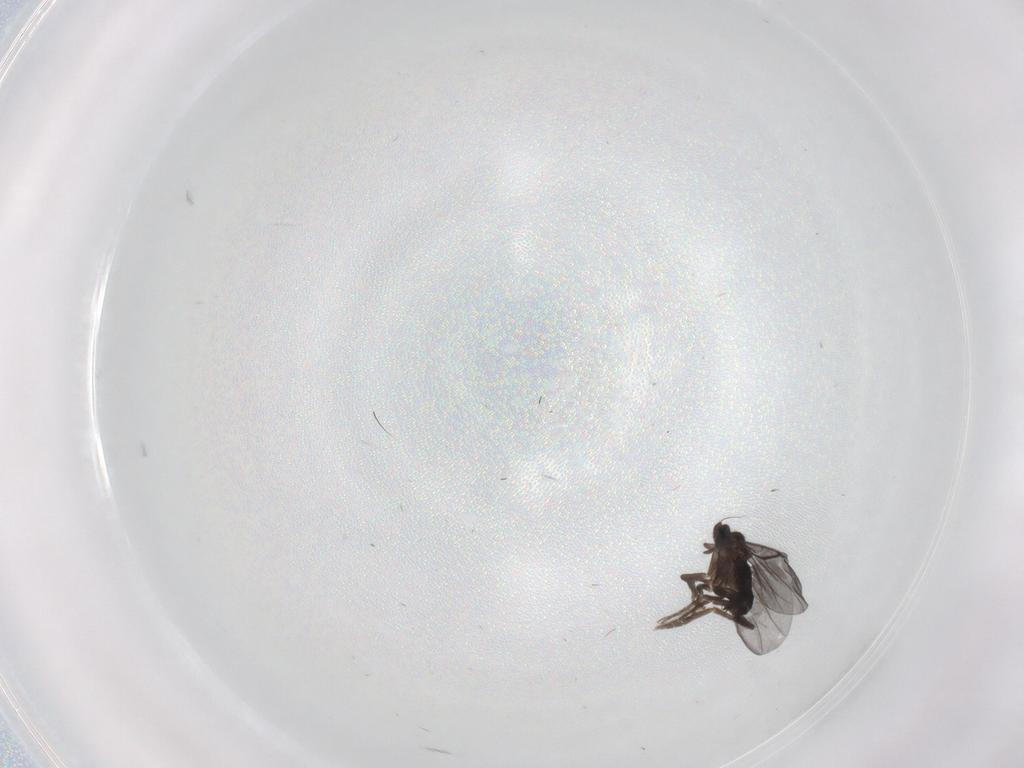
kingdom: Animalia
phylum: Arthropoda
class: Insecta
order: Diptera
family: Phoridae
